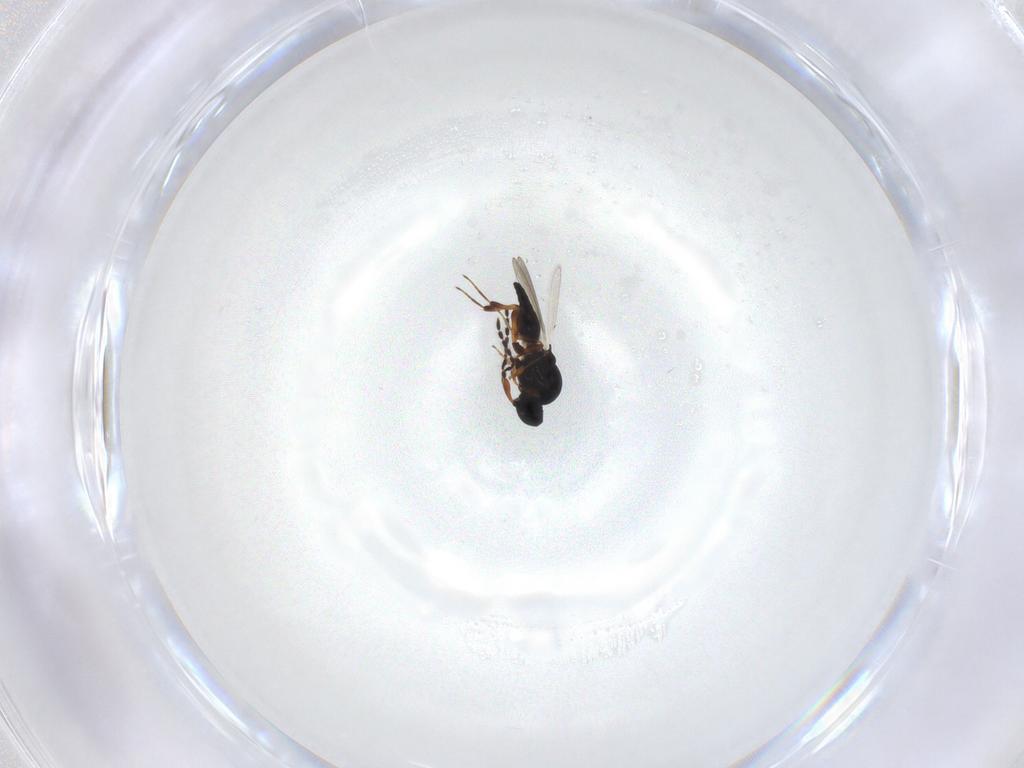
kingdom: Animalia
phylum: Arthropoda
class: Insecta
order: Hymenoptera
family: Platygastridae
